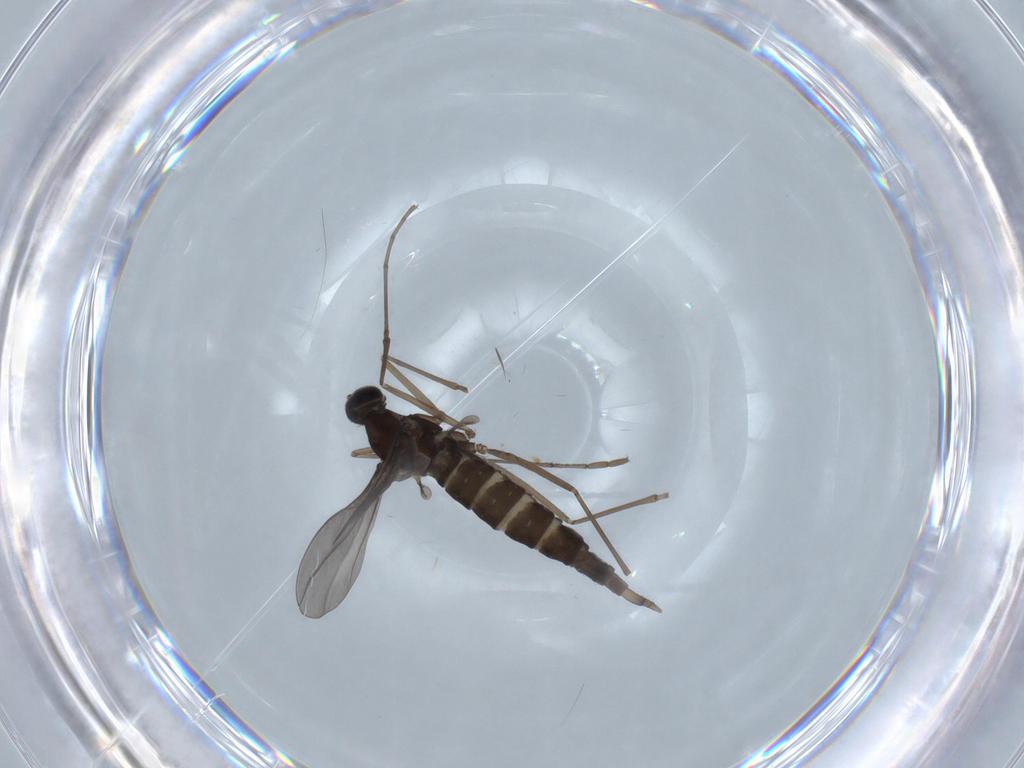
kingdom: Animalia
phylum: Arthropoda
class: Insecta
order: Diptera
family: Cecidomyiidae
